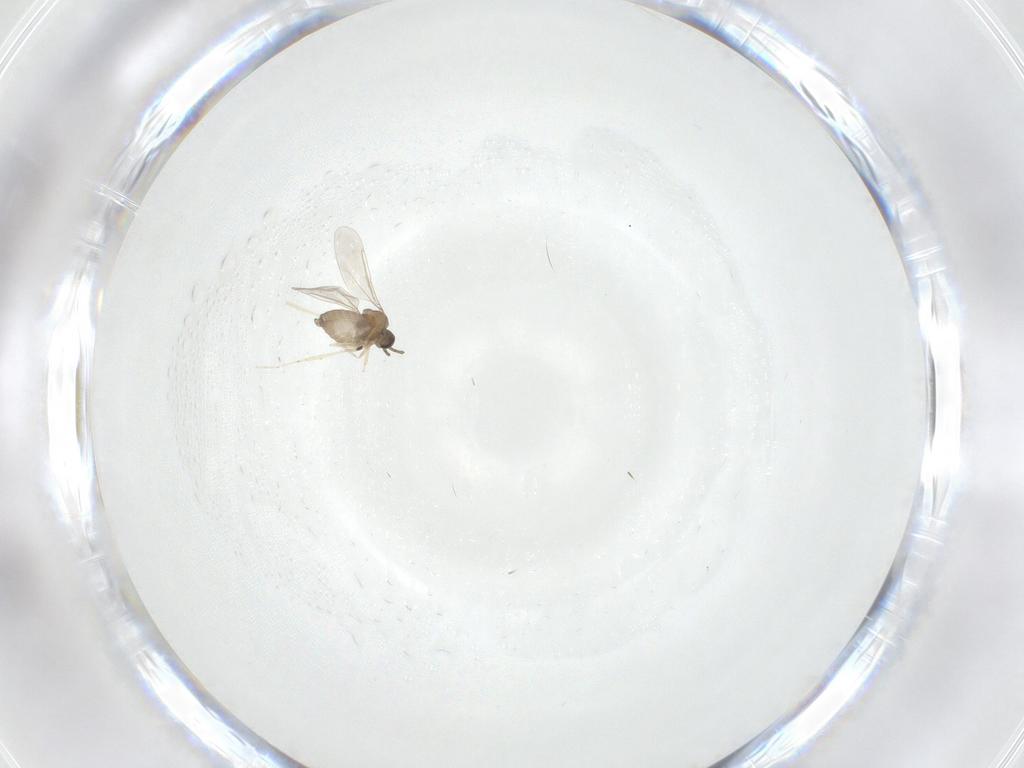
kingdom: Animalia
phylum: Arthropoda
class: Insecta
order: Diptera
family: Cecidomyiidae
